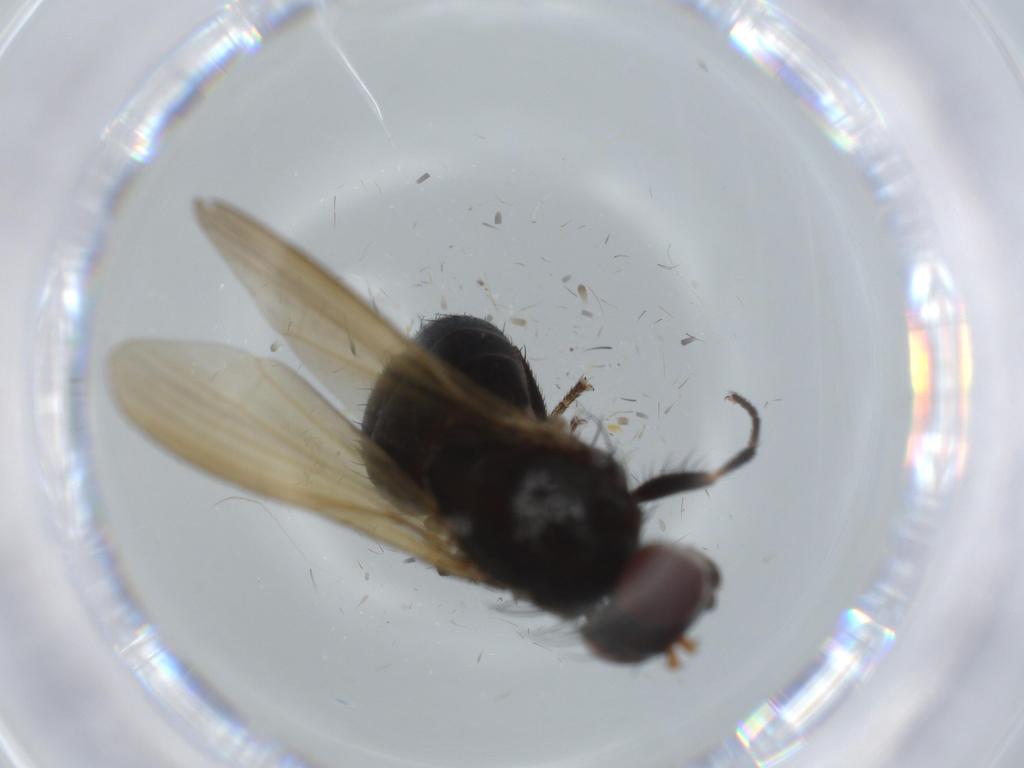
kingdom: Animalia
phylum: Arthropoda
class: Insecta
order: Diptera
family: Lauxaniidae
